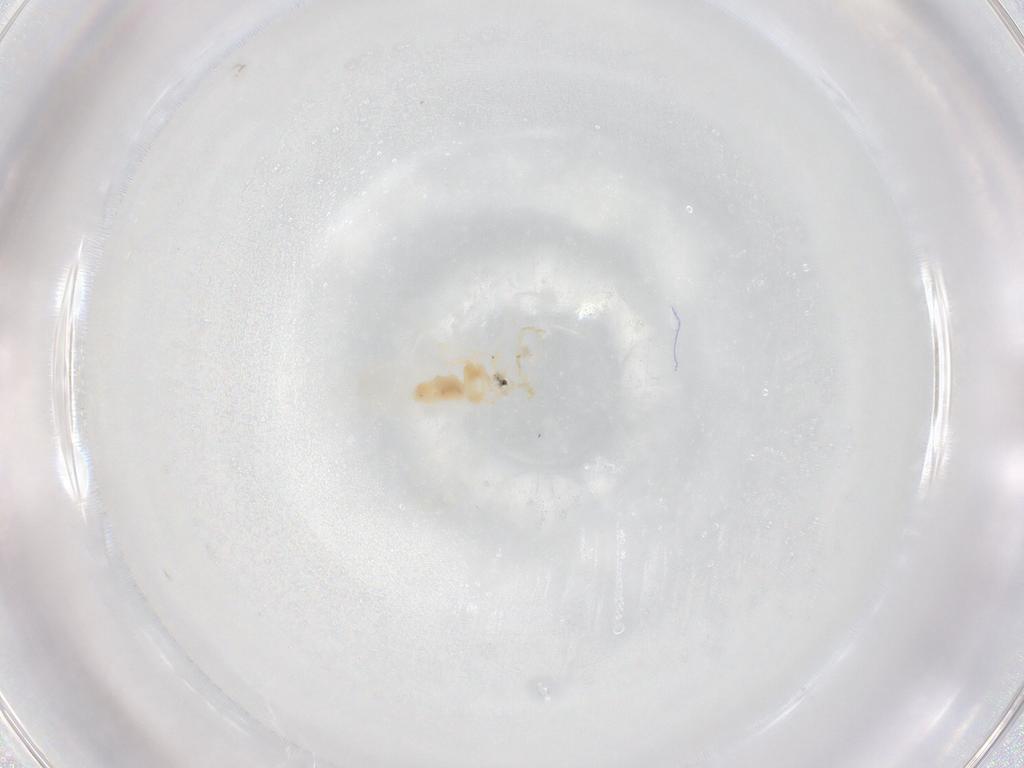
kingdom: Animalia
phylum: Arthropoda
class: Insecta
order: Hemiptera
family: Aleyrodidae
